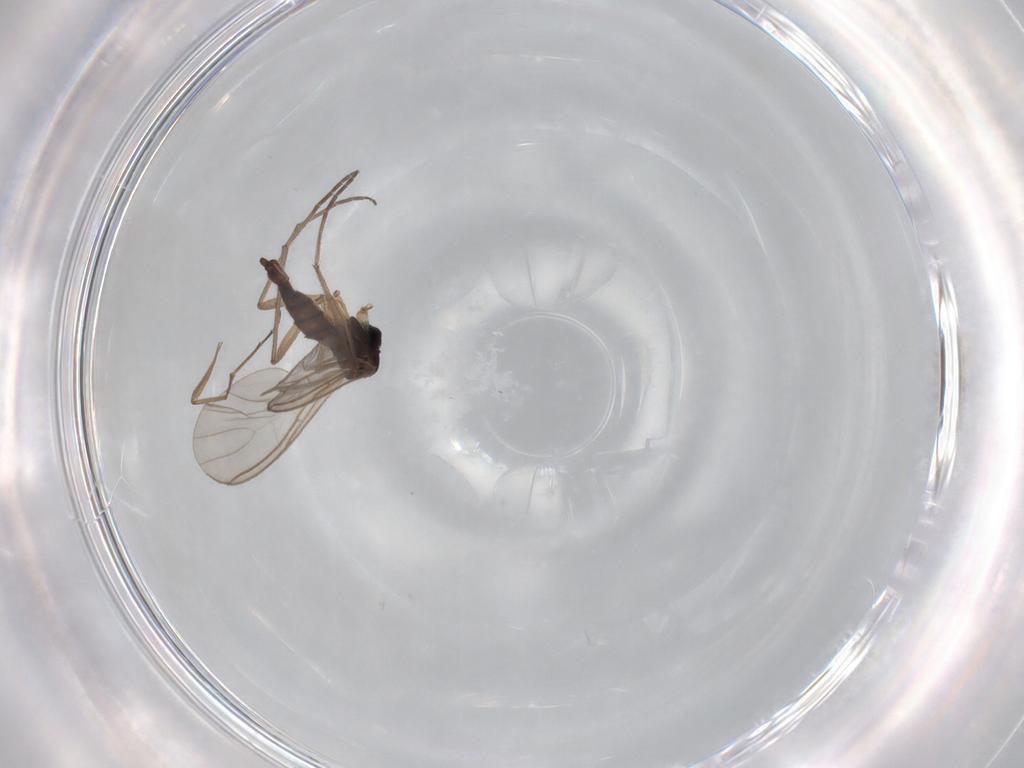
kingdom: Animalia
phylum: Arthropoda
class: Insecta
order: Diptera
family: Sciaridae
